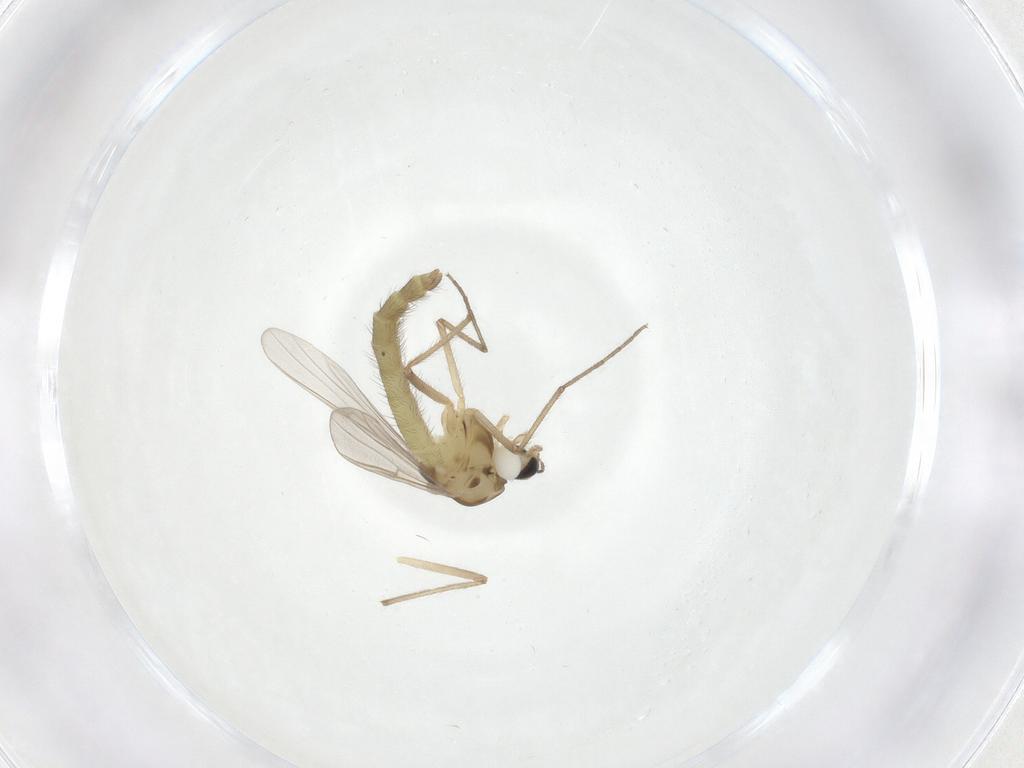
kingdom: Animalia
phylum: Arthropoda
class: Insecta
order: Diptera
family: Chironomidae
